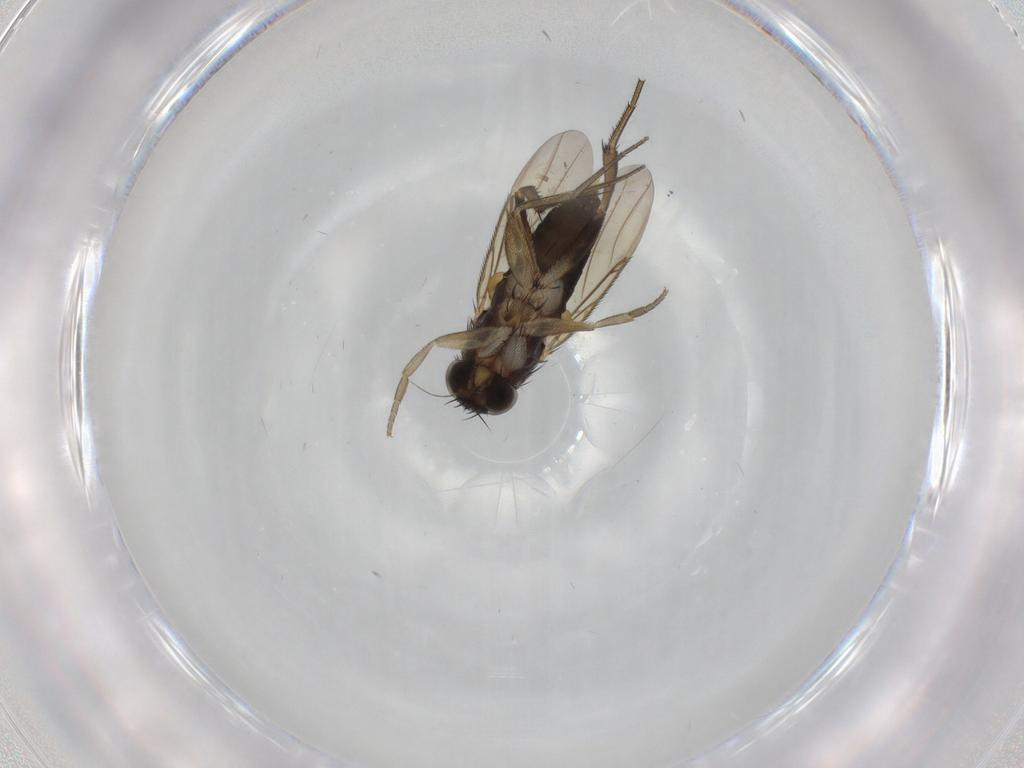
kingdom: Animalia
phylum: Arthropoda
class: Insecta
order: Diptera
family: Phoridae
